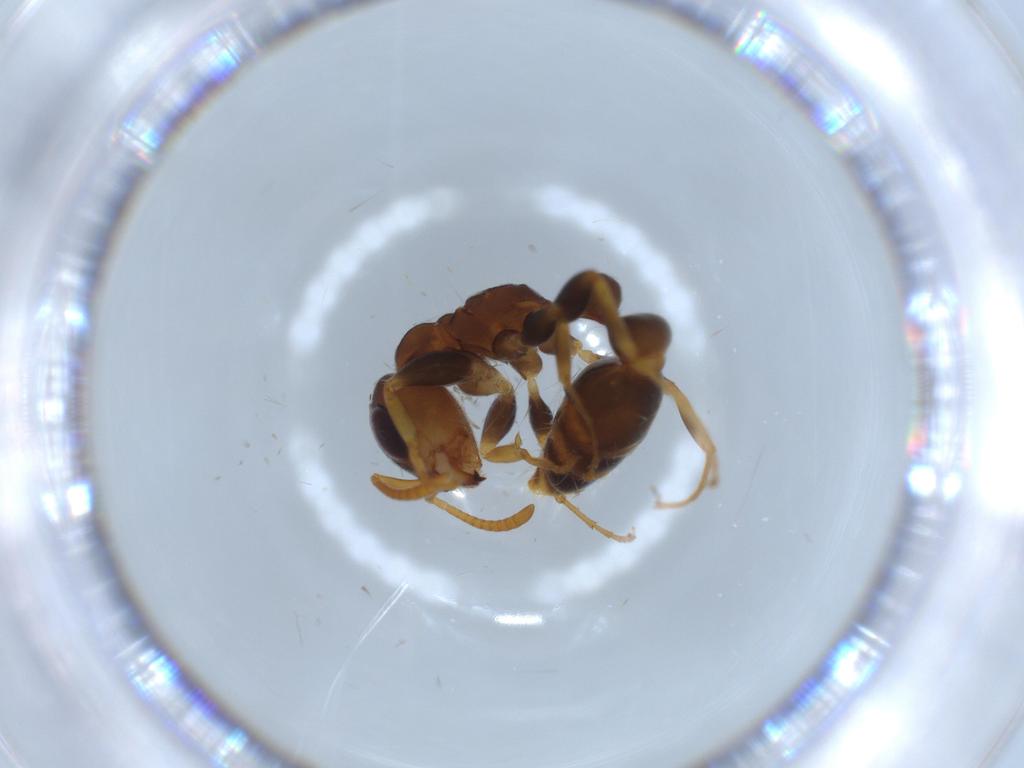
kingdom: Animalia
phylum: Arthropoda
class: Insecta
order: Hymenoptera
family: Formicidae
